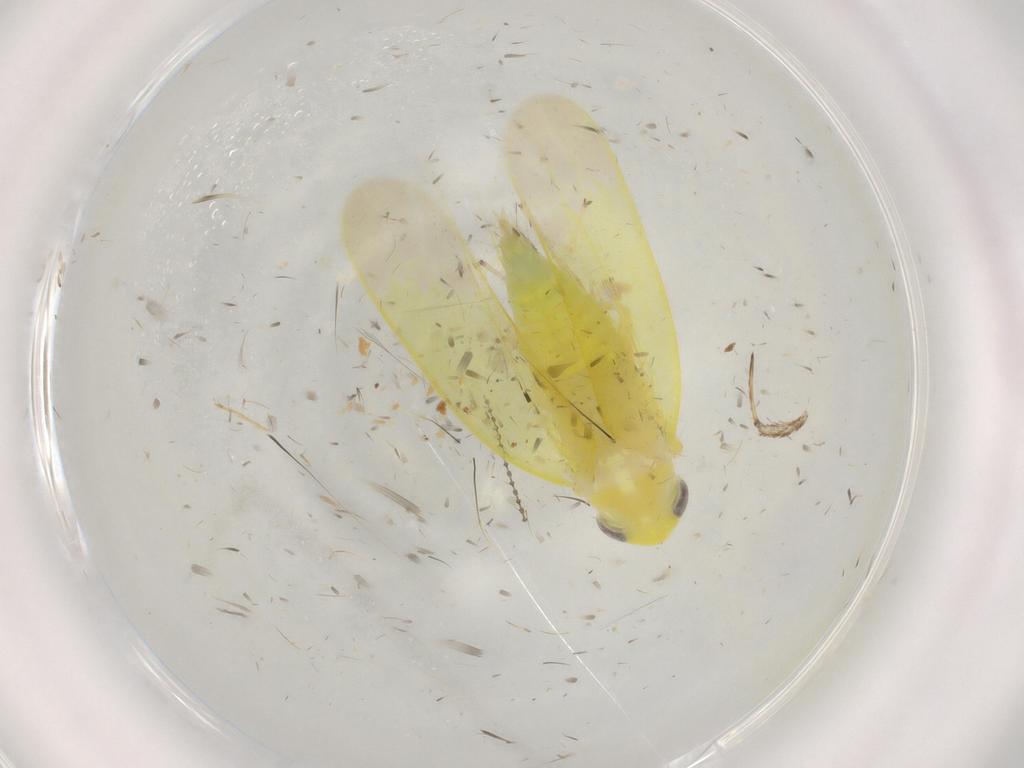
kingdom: Animalia
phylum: Arthropoda
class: Insecta
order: Hemiptera
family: Cicadellidae
